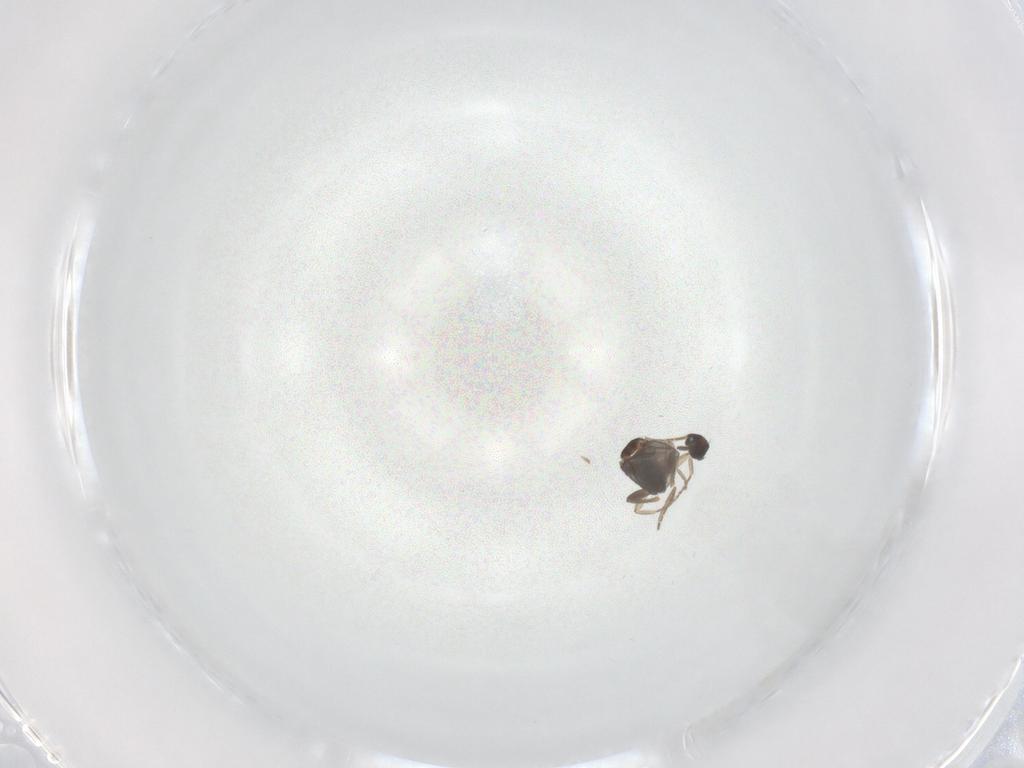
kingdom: Animalia
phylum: Arthropoda
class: Insecta
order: Diptera
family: Phoridae
